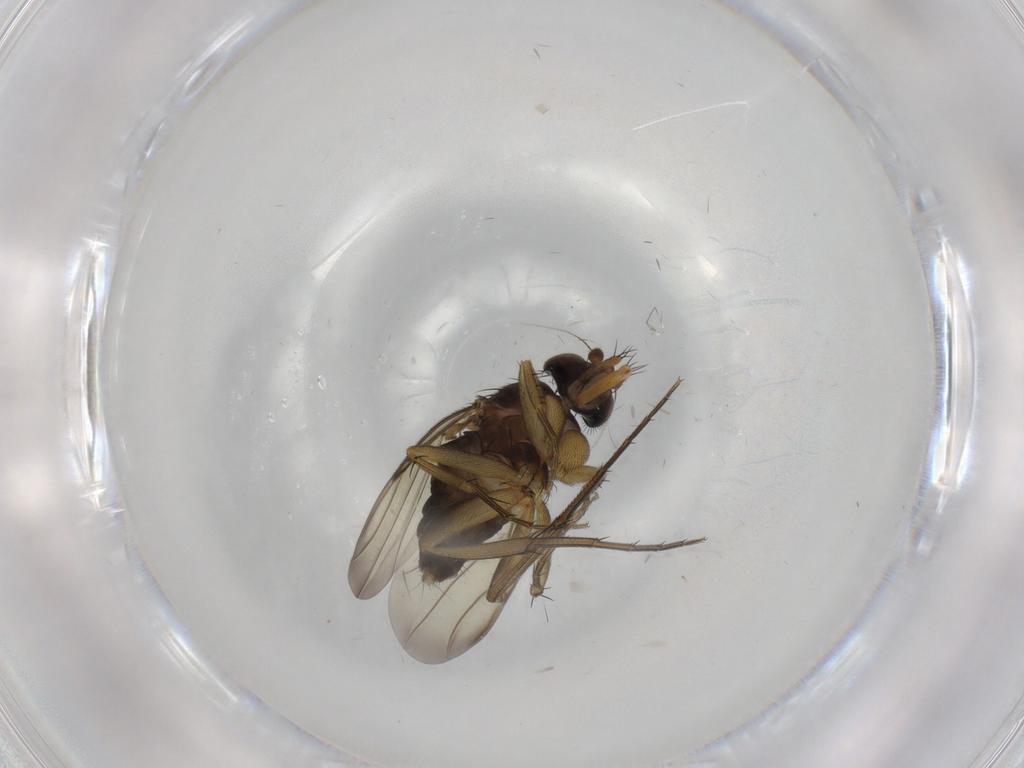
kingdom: Animalia
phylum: Arthropoda
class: Insecta
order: Diptera
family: Cecidomyiidae
